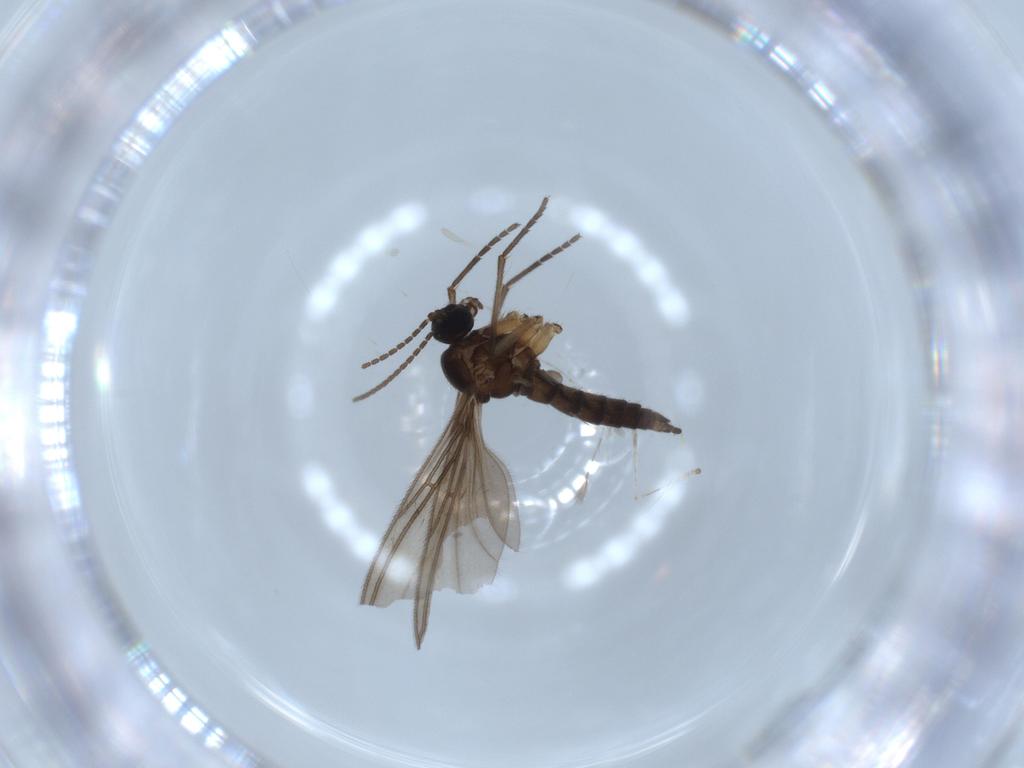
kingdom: Animalia
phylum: Arthropoda
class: Insecta
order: Diptera
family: Cecidomyiidae
